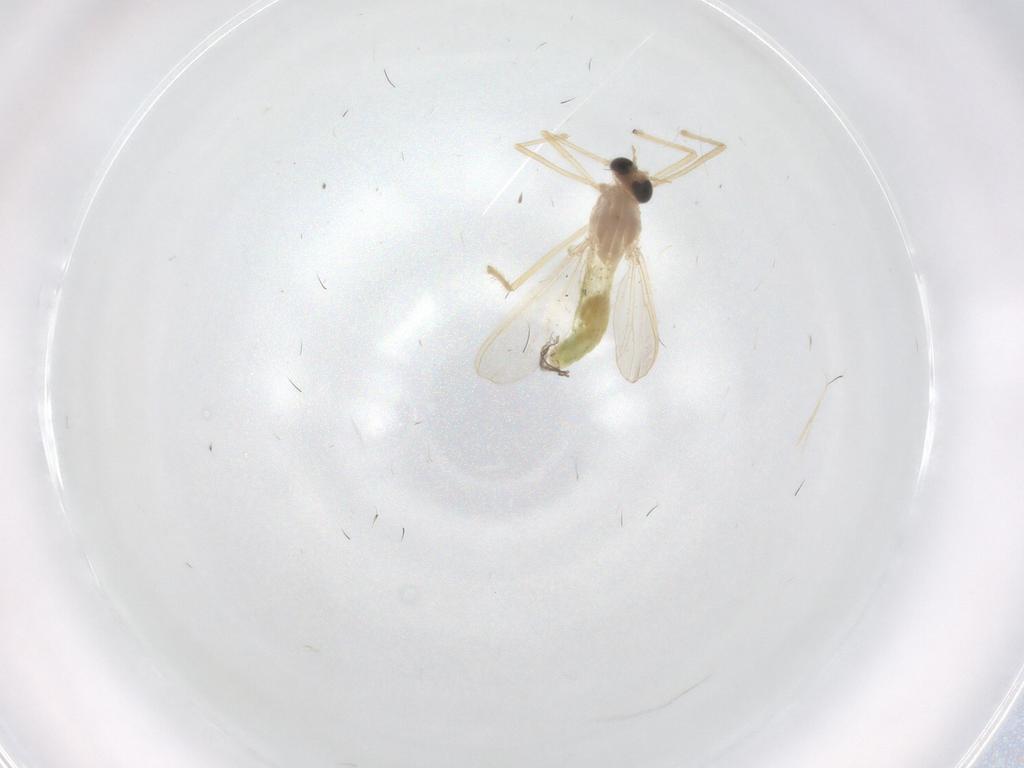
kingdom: Animalia
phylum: Arthropoda
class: Insecta
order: Diptera
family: Chironomidae
